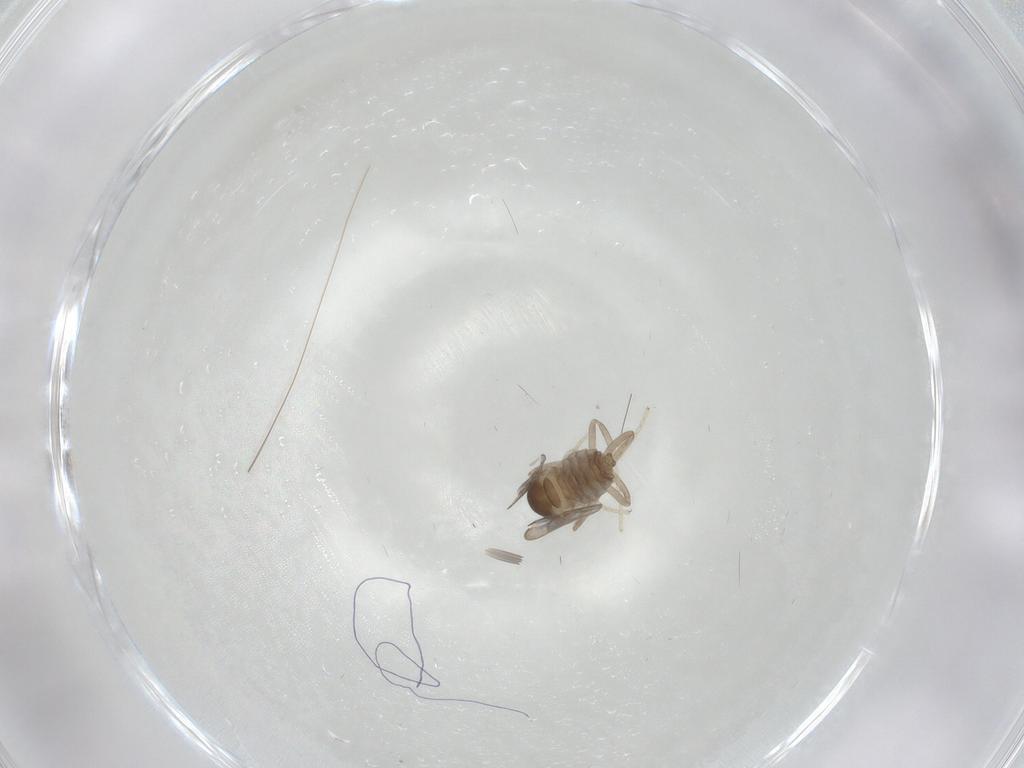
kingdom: Animalia
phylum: Arthropoda
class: Insecta
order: Diptera
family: Cecidomyiidae
